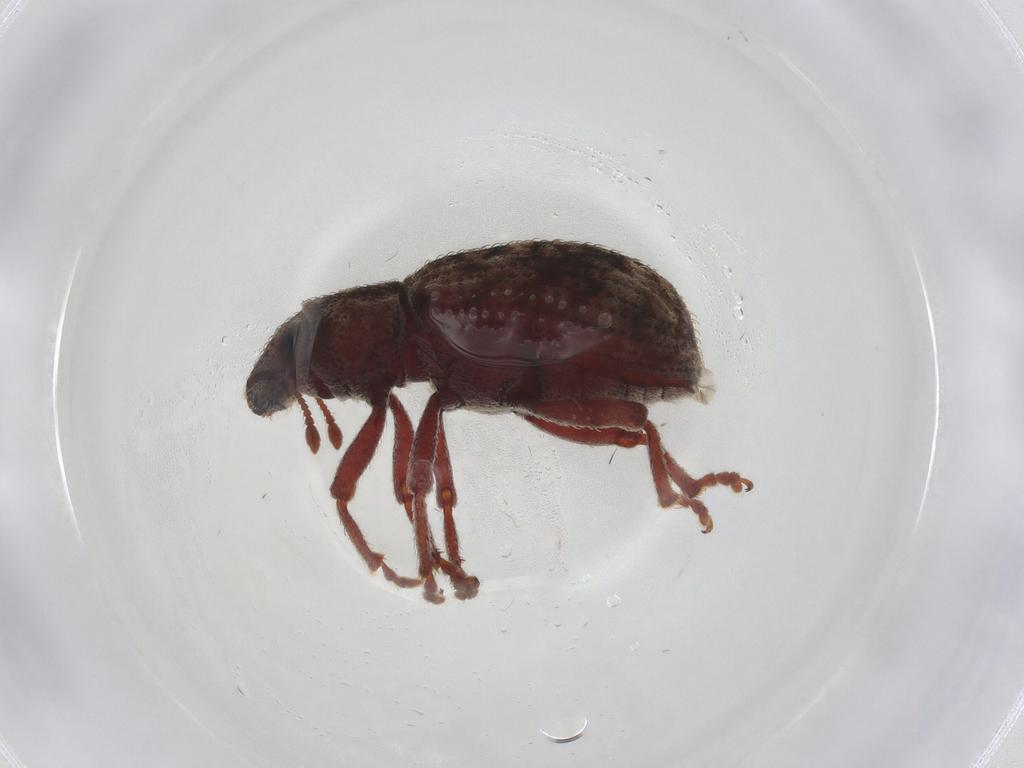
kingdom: Animalia
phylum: Arthropoda
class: Insecta
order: Coleoptera
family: Curculionidae
